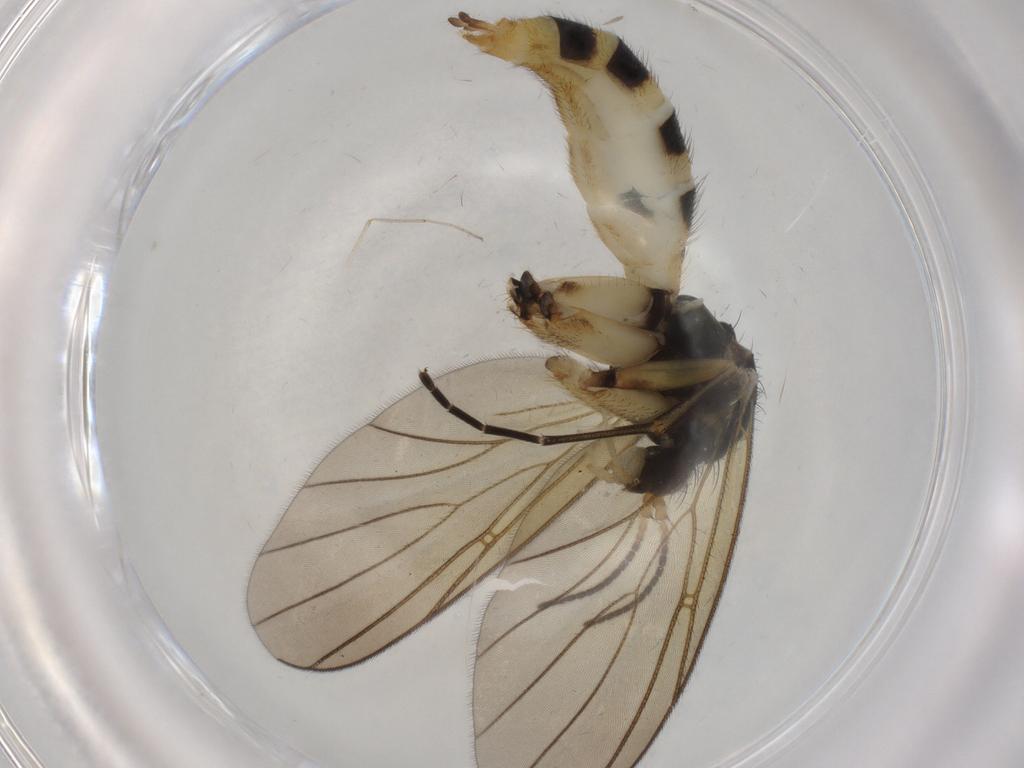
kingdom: Animalia
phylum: Arthropoda
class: Insecta
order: Diptera
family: Mycetophilidae
